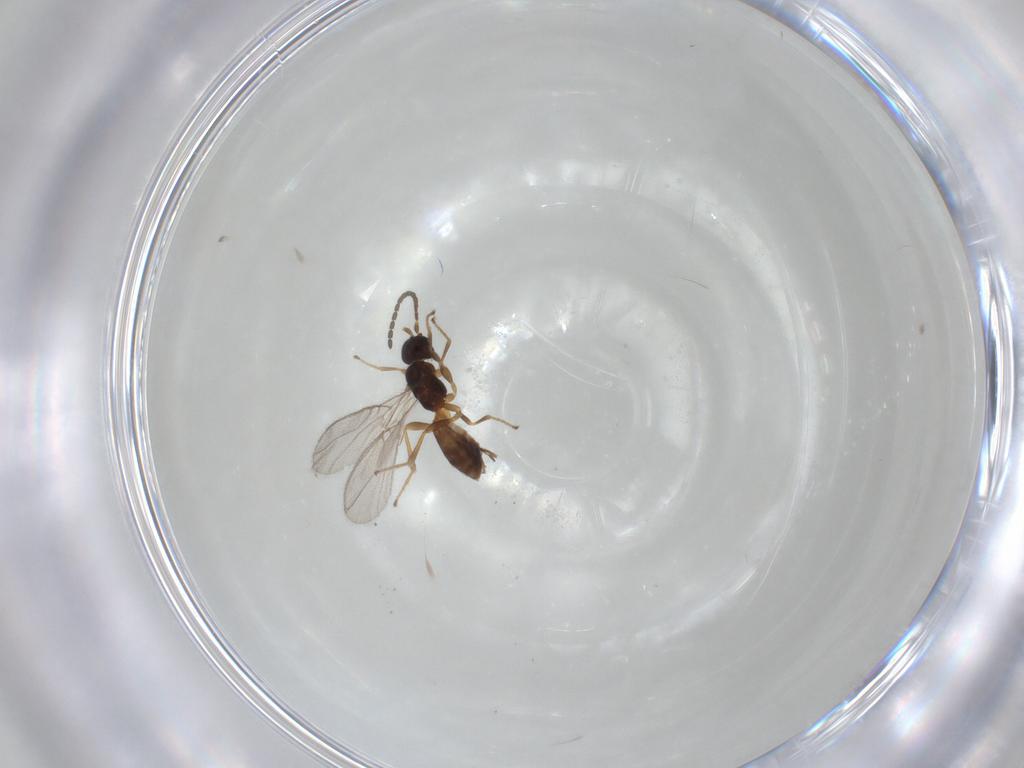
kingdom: Animalia
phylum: Arthropoda
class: Insecta
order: Hymenoptera
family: Braconidae
